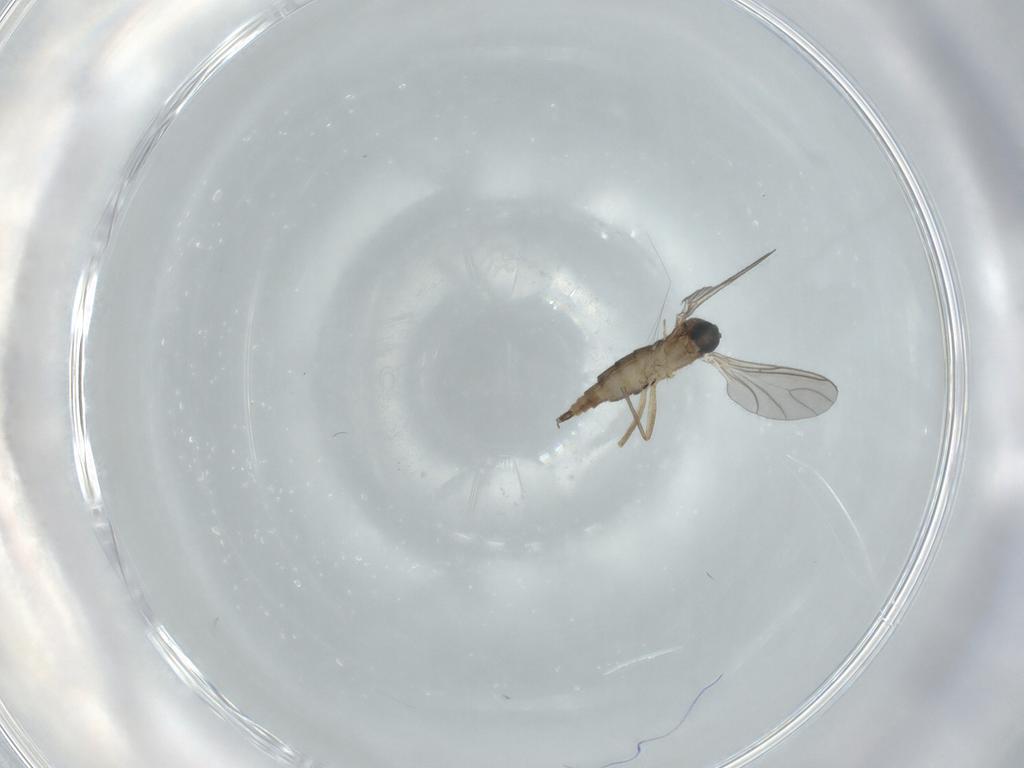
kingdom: Animalia
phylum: Arthropoda
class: Insecta
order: Diptera
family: Sciaridae
